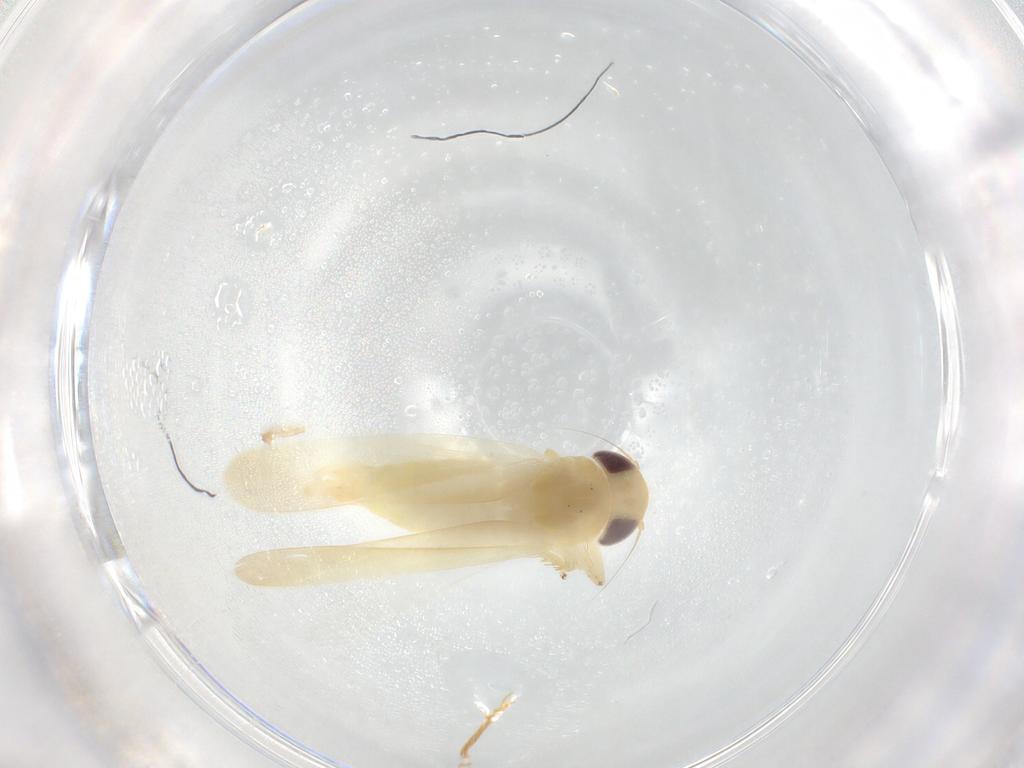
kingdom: Animalia
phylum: Arthropoda
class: Insecta
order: Hemiptera
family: Cicadellidae
